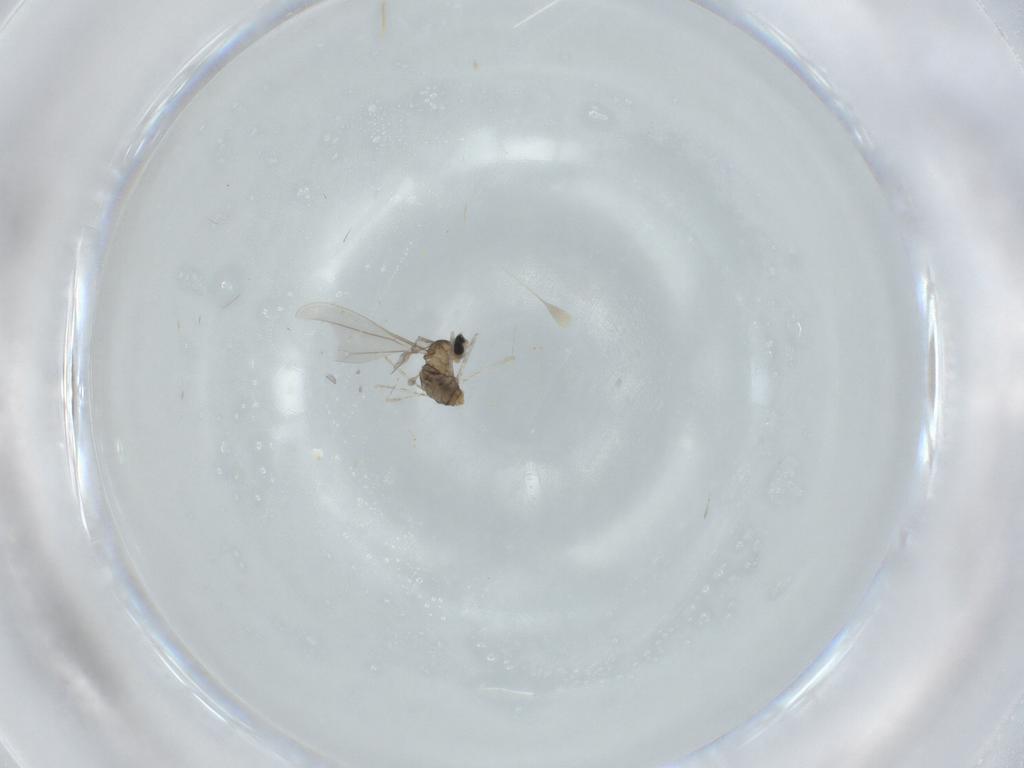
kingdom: Animalia
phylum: Arthropoda
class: Insecta
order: Diptera
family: Cecidomyiidae
